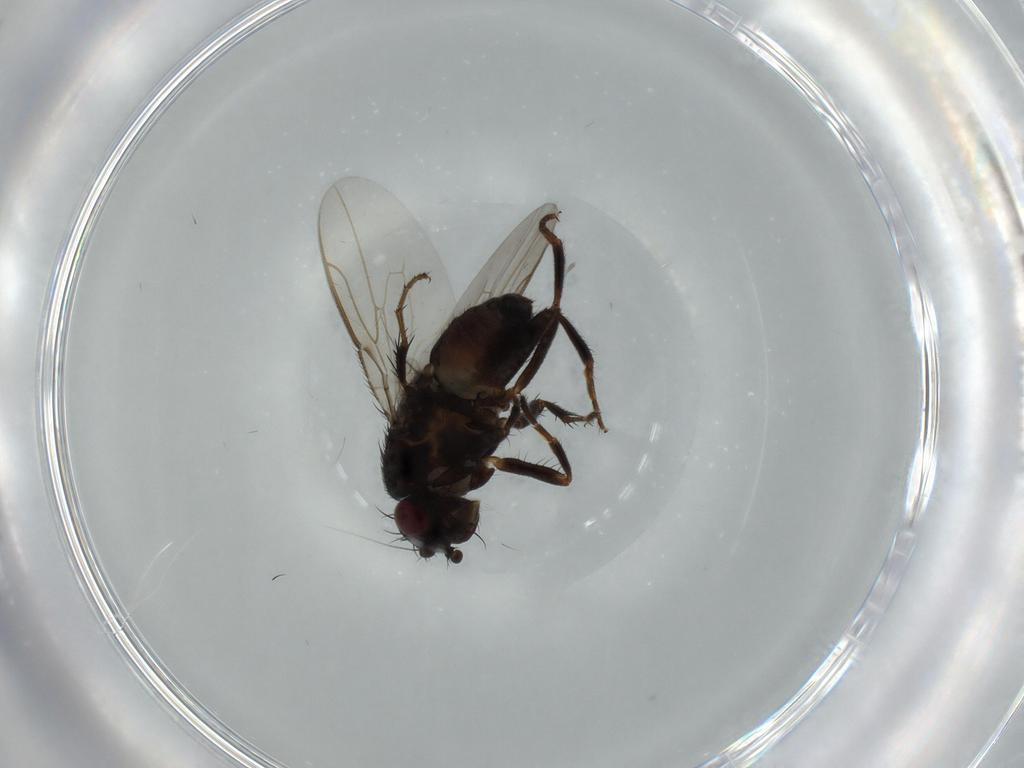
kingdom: Animalia
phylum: Arthropoda
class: Insecta
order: Diptera
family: Sphaeroceridae
